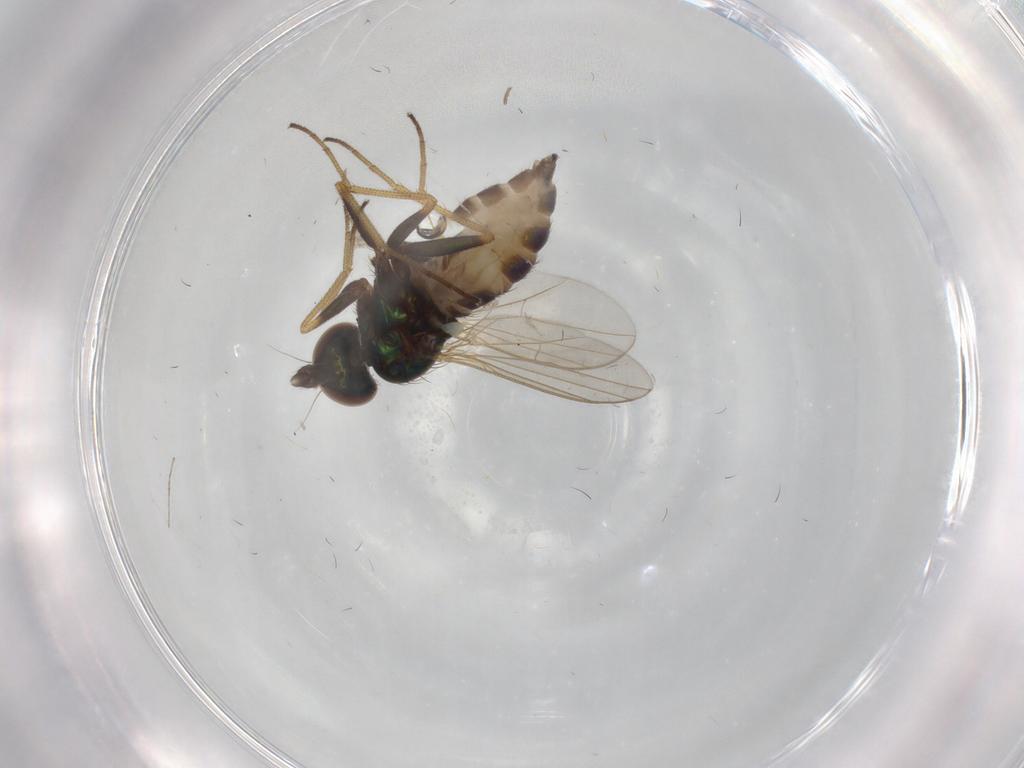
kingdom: Animalia
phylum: Arthropoda
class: Insecta
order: Diptera
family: Dolichopodidae
